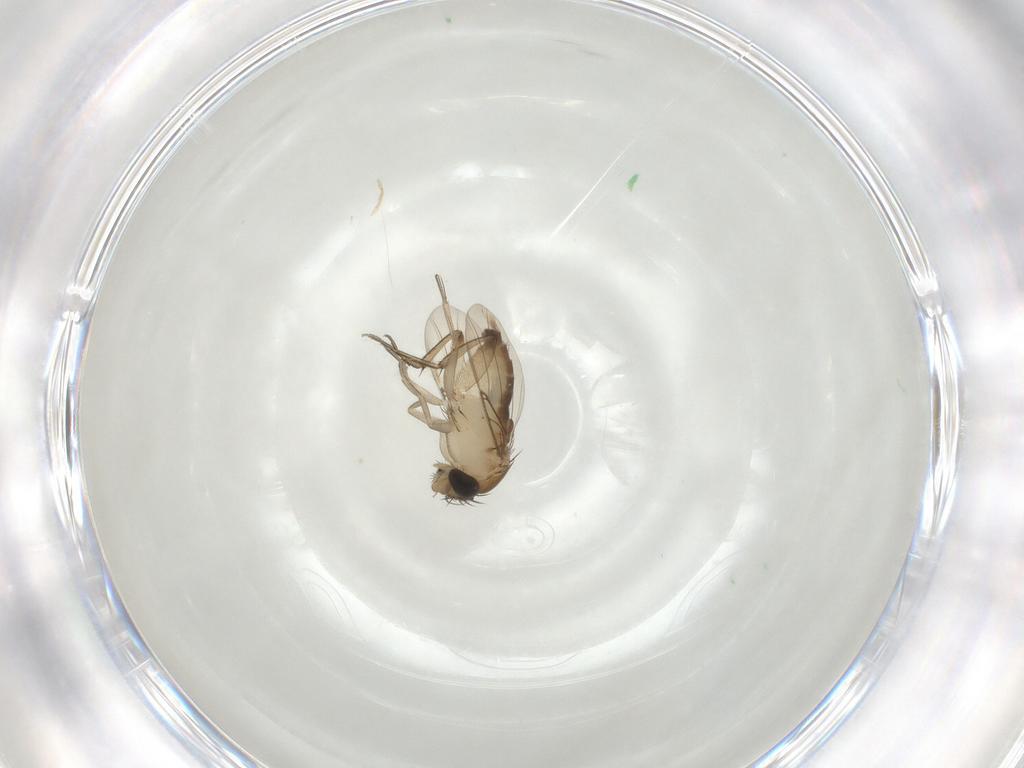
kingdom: Animalia
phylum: Arthropoda
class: Insecta
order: Diptera
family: Phoridae
